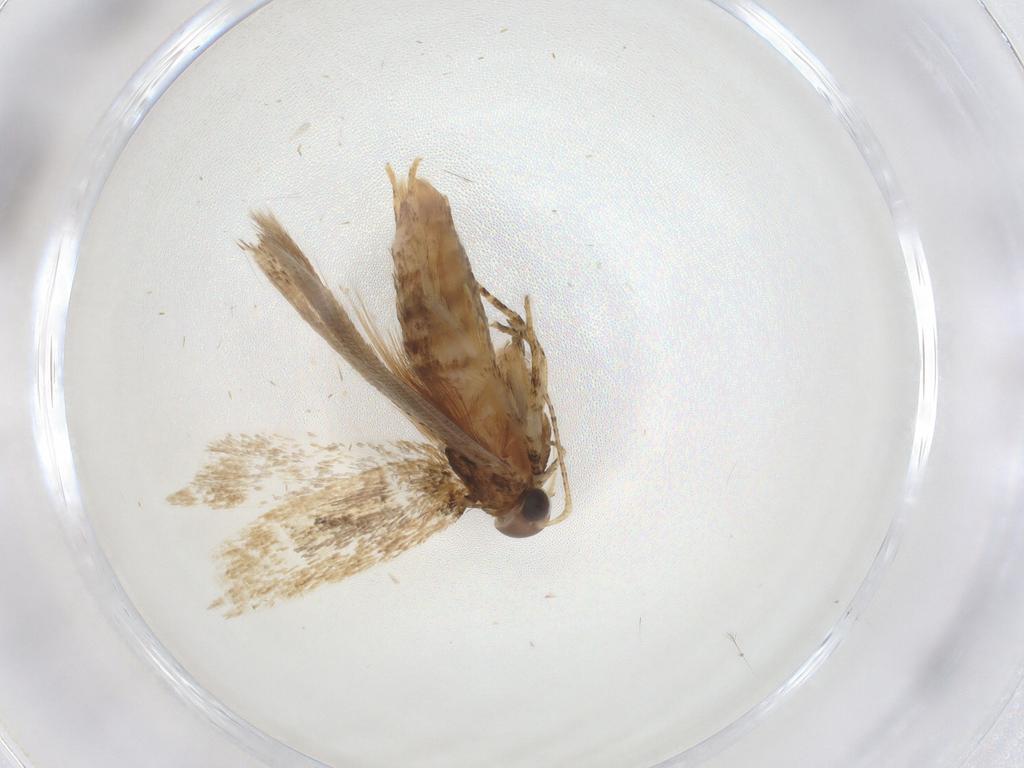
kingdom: Animalia
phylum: Arthropoda
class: Insecta
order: Lepidoptera
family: Gelechiidae
